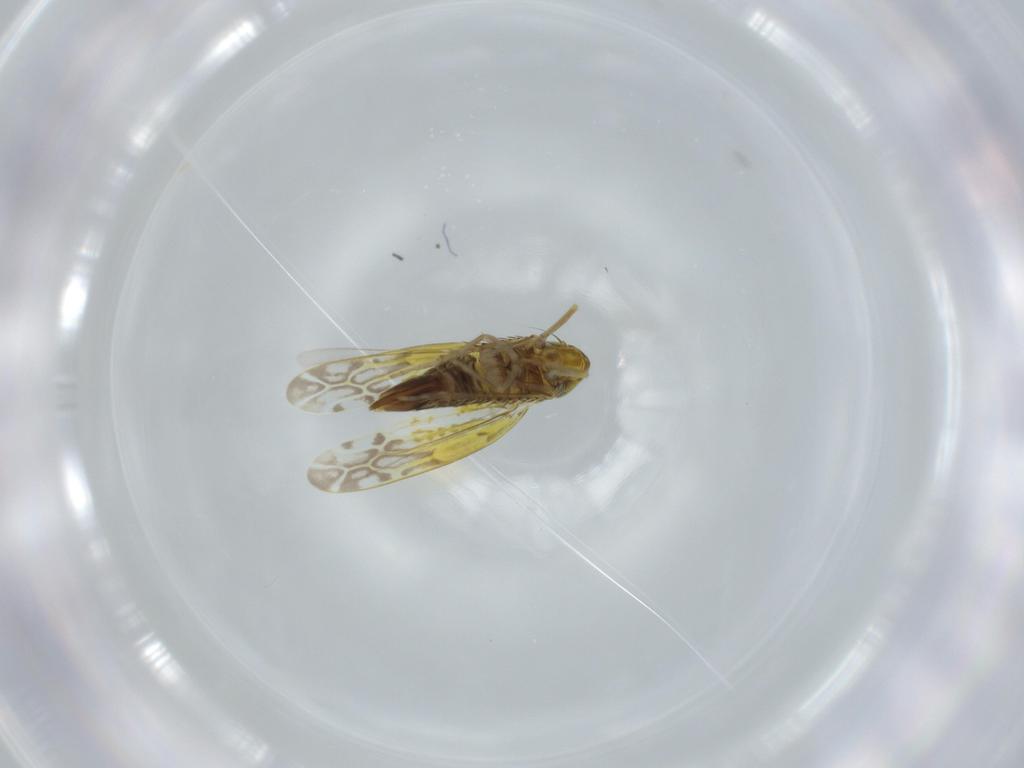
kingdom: Animalia
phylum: Arthropoda
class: Insecta
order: Hemiptera
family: Cicadellidae
